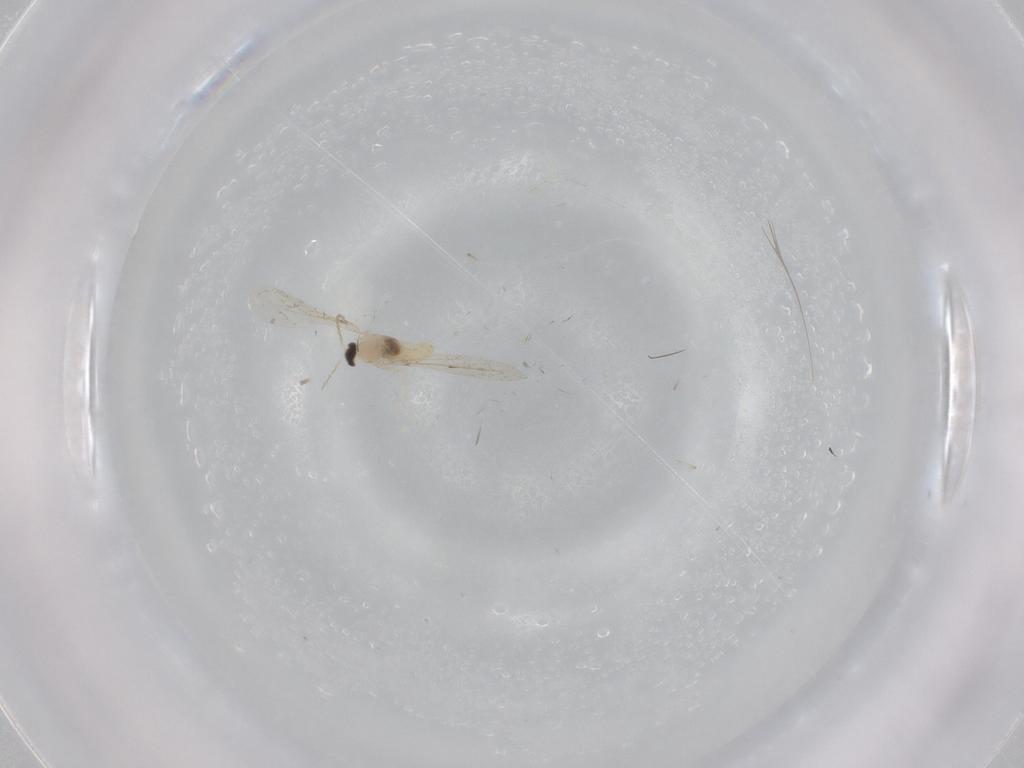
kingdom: Animalia
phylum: Arthropoda
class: Insecta
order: Diptera
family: Cecidomyiidae
